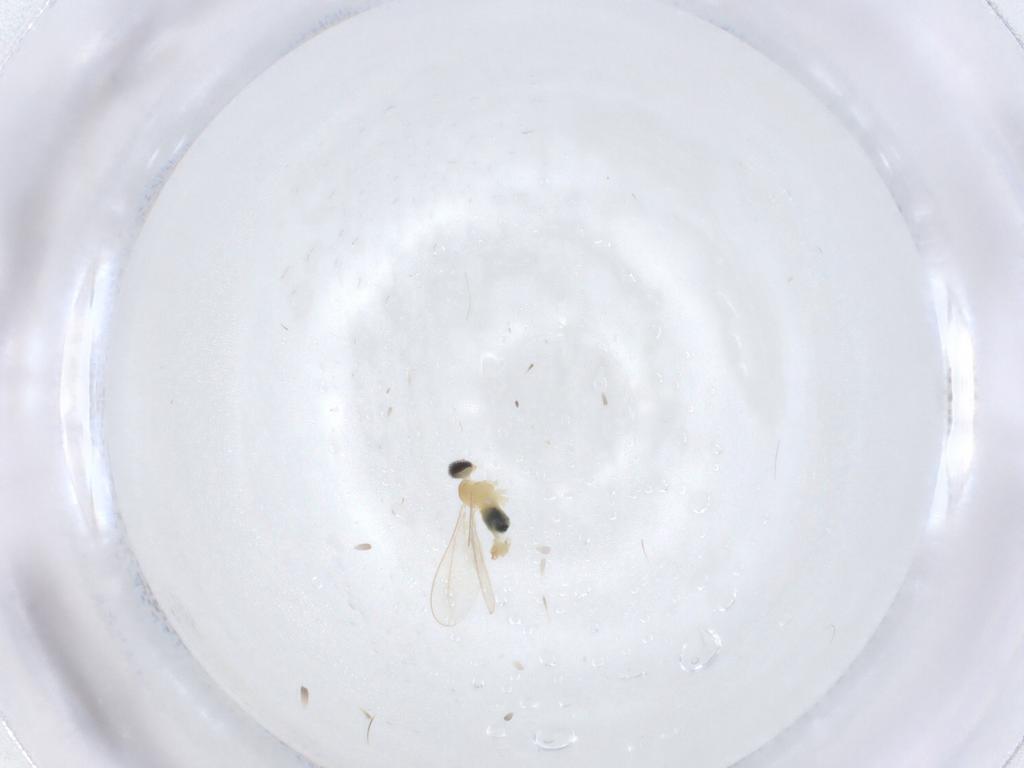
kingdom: Animalia
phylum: Arthropoda
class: Insecta
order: Diptera
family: Cecidomyiidae
